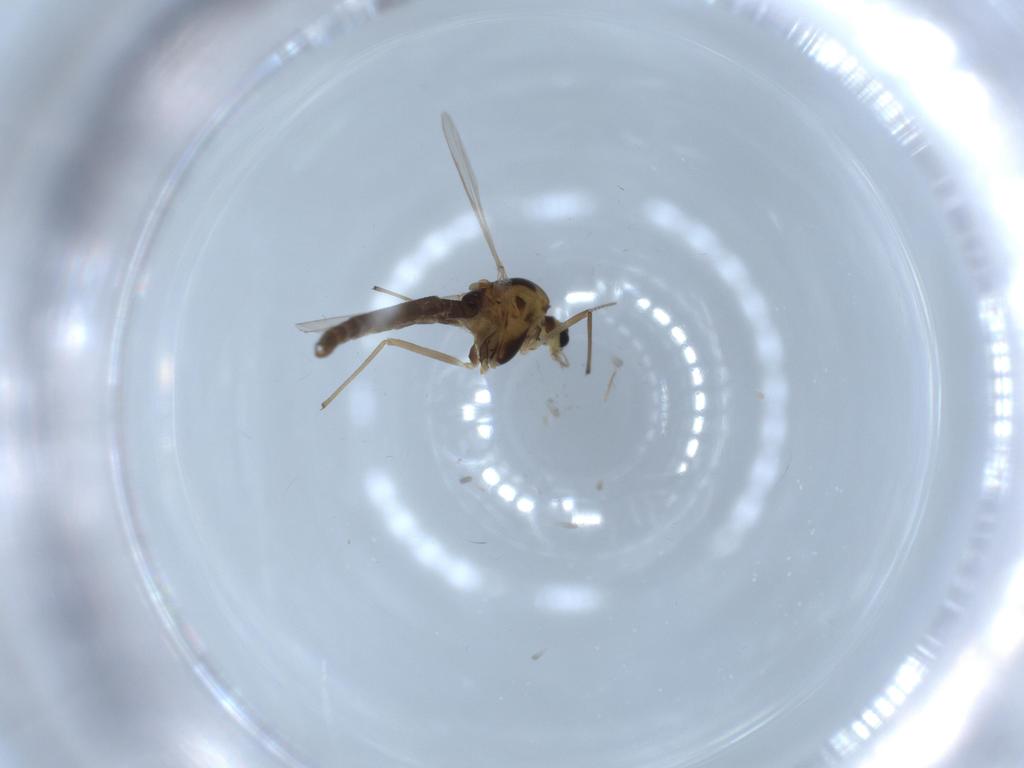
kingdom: Animalia
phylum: Arthropoda
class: Insecta
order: Diptera
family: Chironomidae
